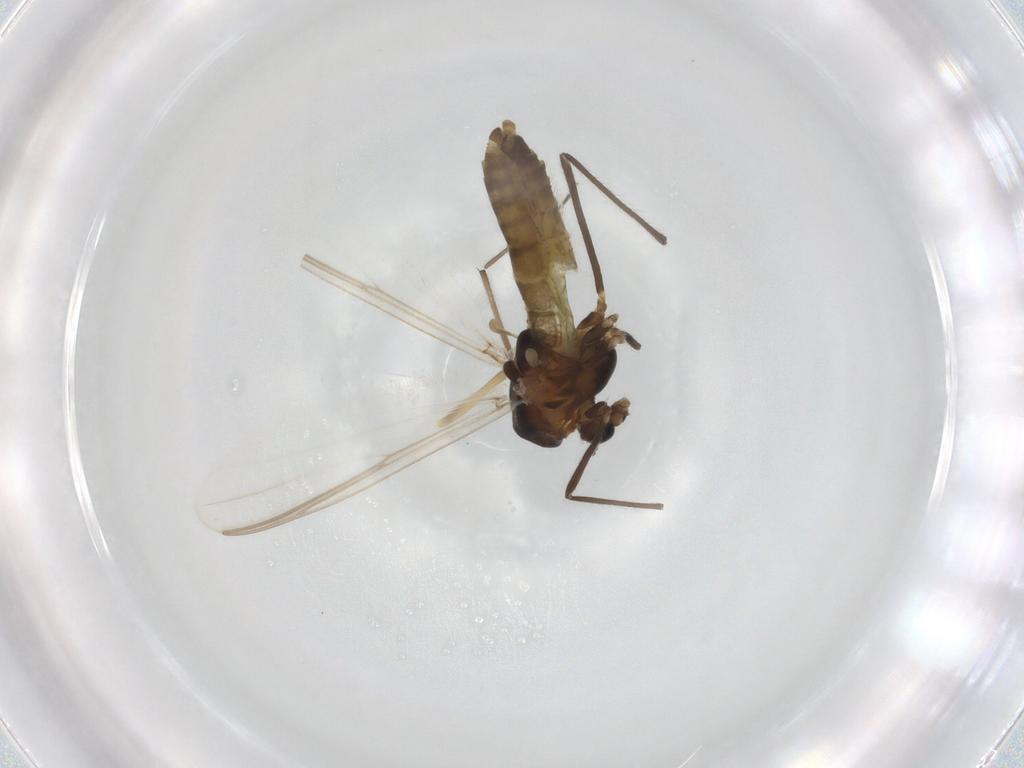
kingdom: Animalia
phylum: Arthropoda
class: Insecta
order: Diptera
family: Chironomidae
